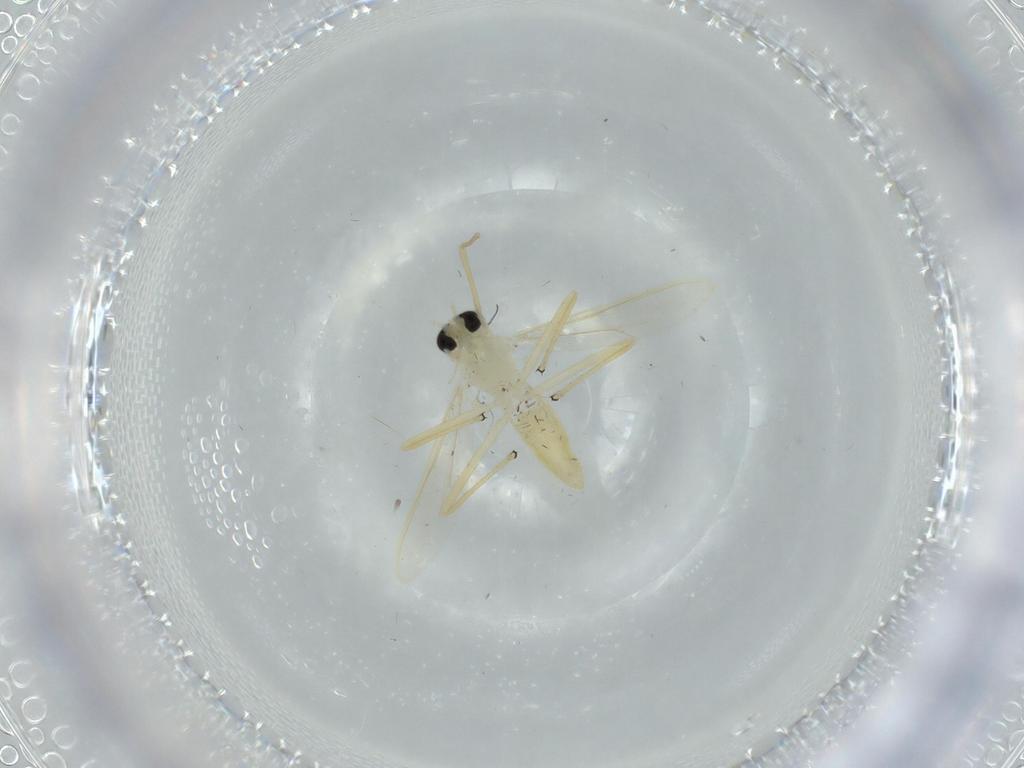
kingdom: Animalia
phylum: Arthropoda
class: Insecta
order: Diptera
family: Chironomidae
